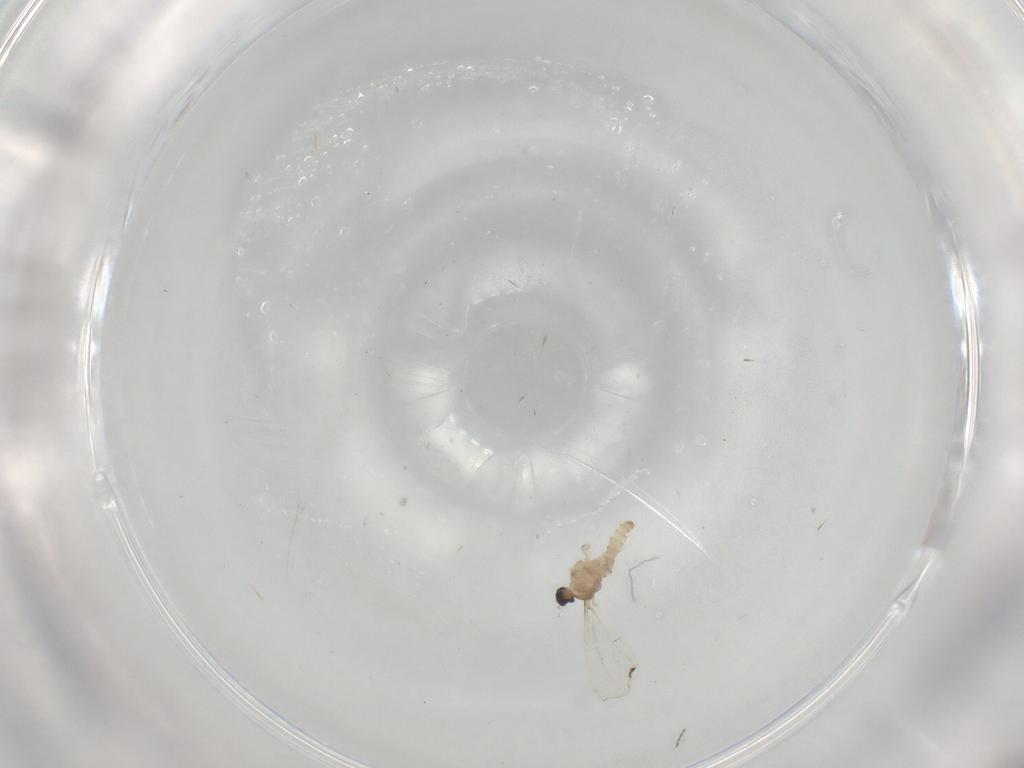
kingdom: Animalia
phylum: Arthropoda
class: Insecta
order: Diptera
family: Cecidomyiidae
